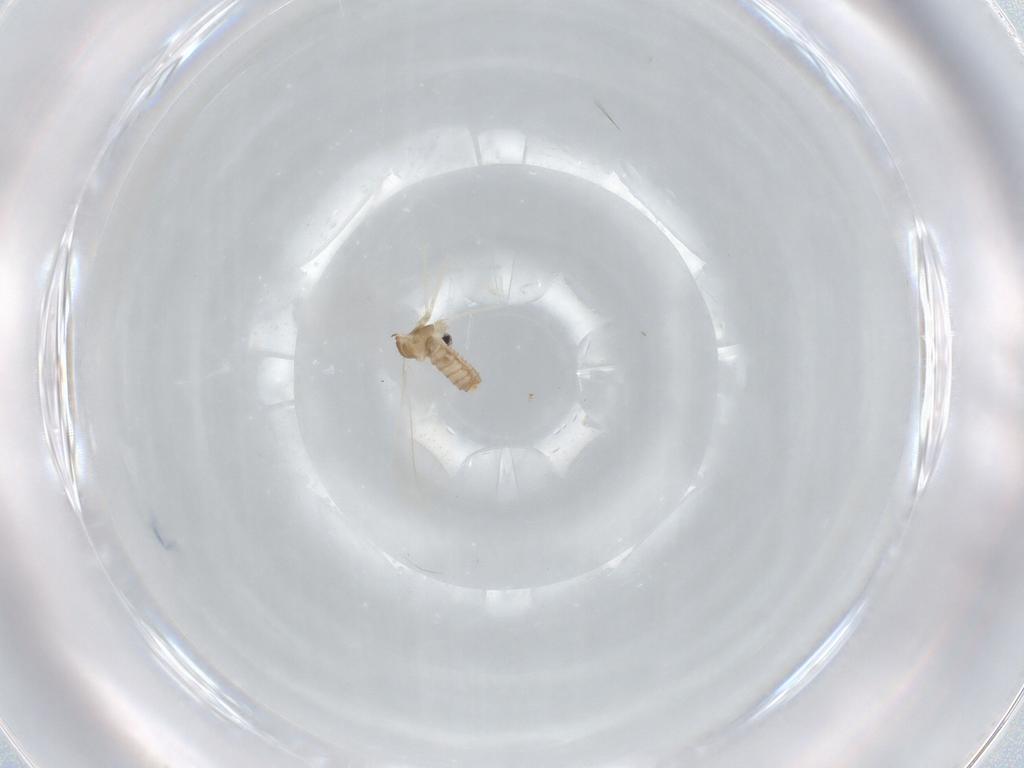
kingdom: Animalia
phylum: Arthropoda
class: Insecta
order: Diptera
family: Cecidomyiidae
